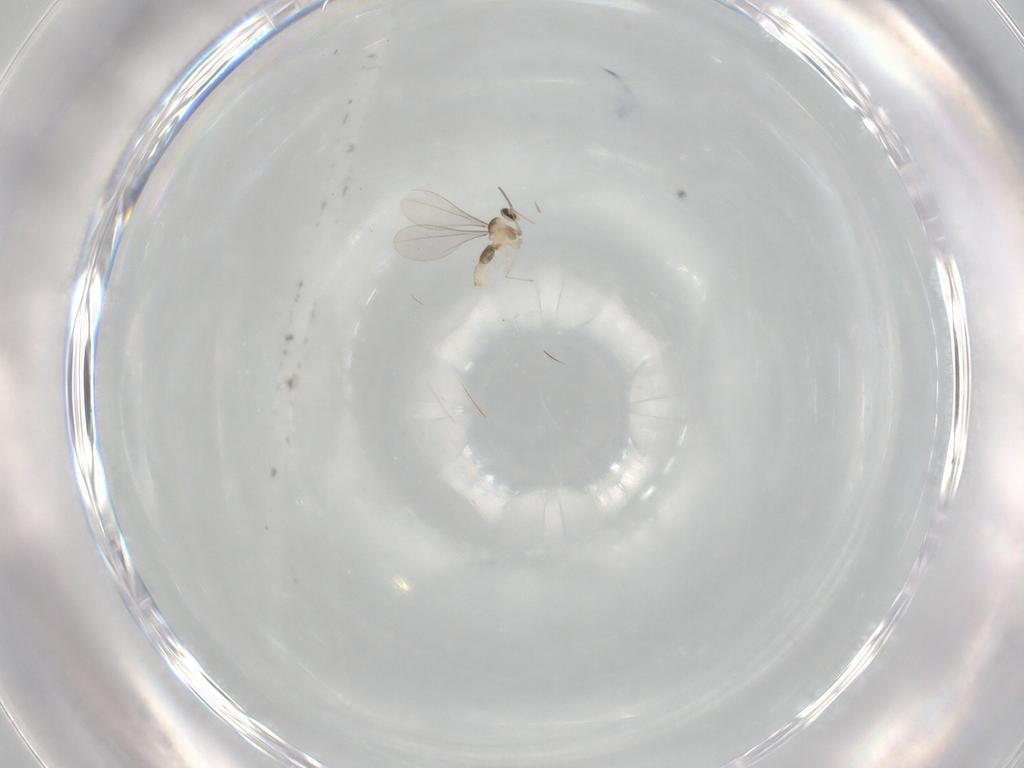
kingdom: Animalia
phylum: Arthropoda
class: Insecta
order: Diptera
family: Cecidomyiidae
